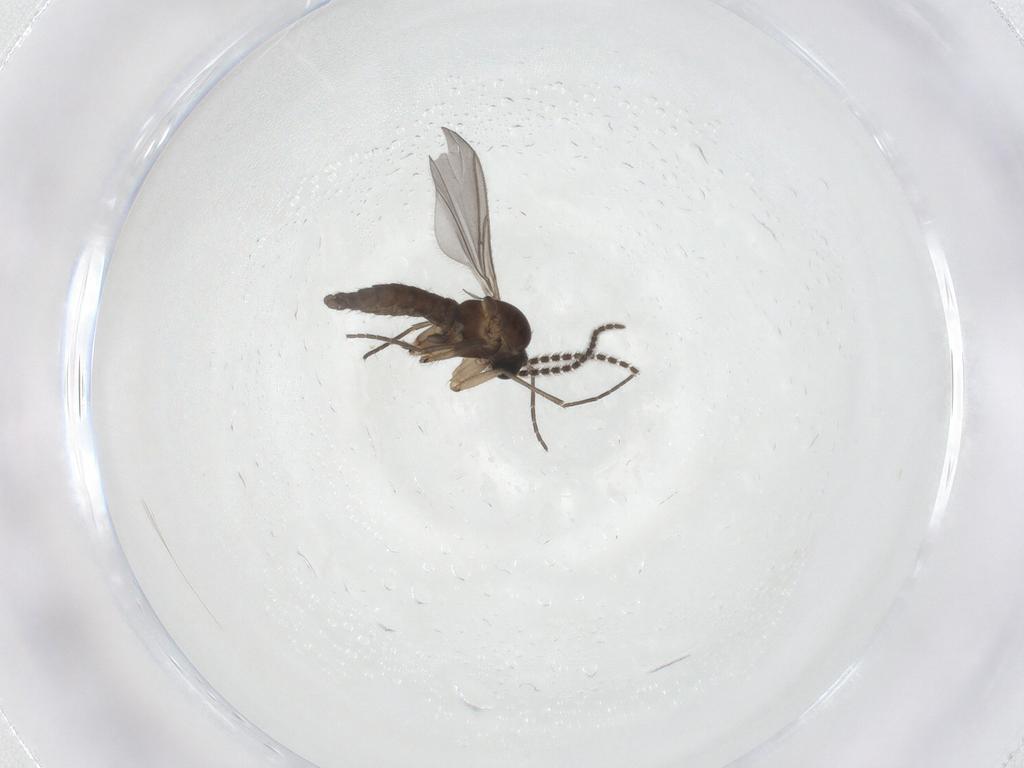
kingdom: Animalia
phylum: Arthropoda
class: Insecta
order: Diptera
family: Sciaridae
